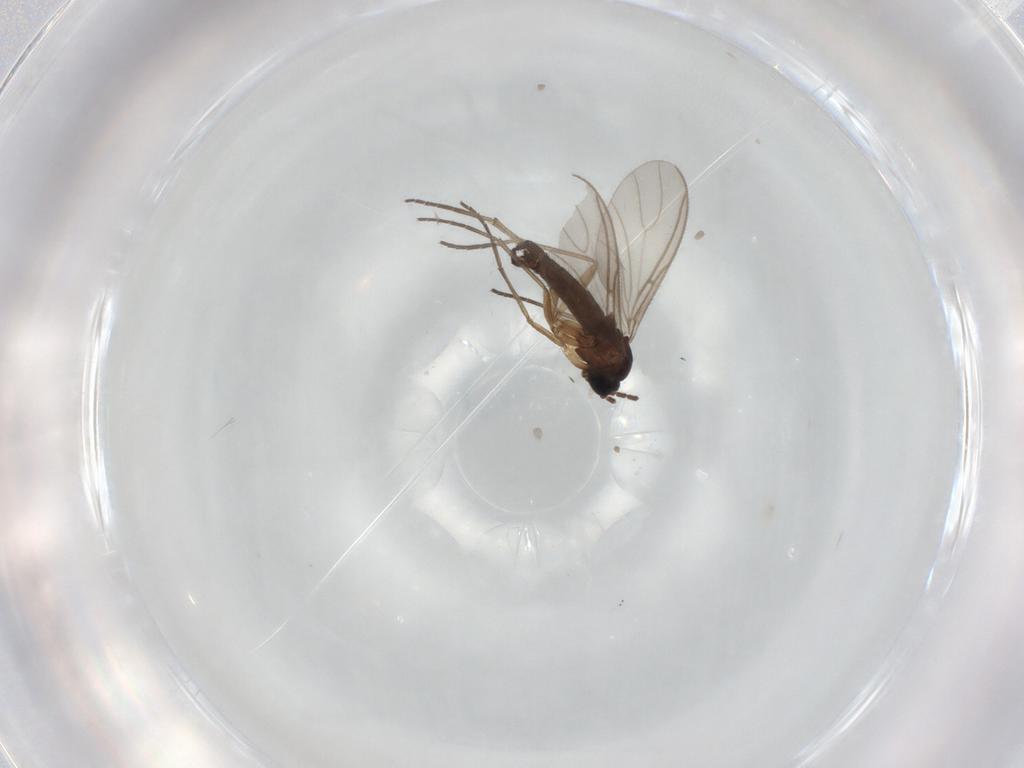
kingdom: Animalia
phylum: Arthropoda
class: Insecta
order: Diptera
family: Sciaridae
